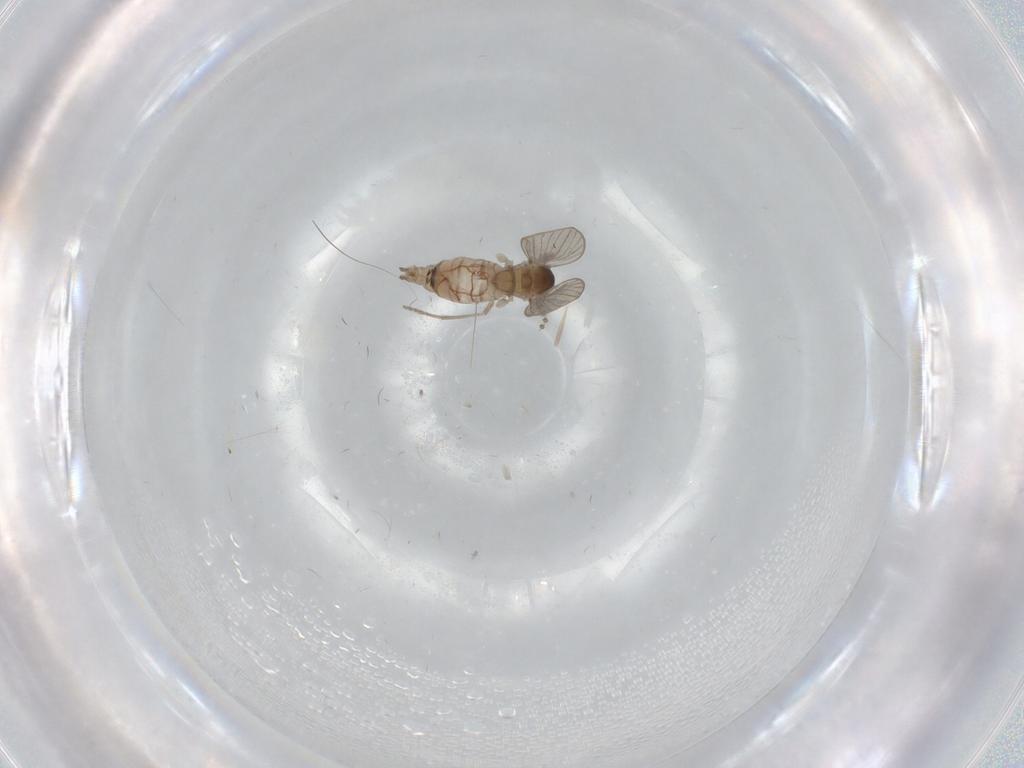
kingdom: Animalia
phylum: Arthropoda
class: Insecta
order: Diptera
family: Psychodidae
